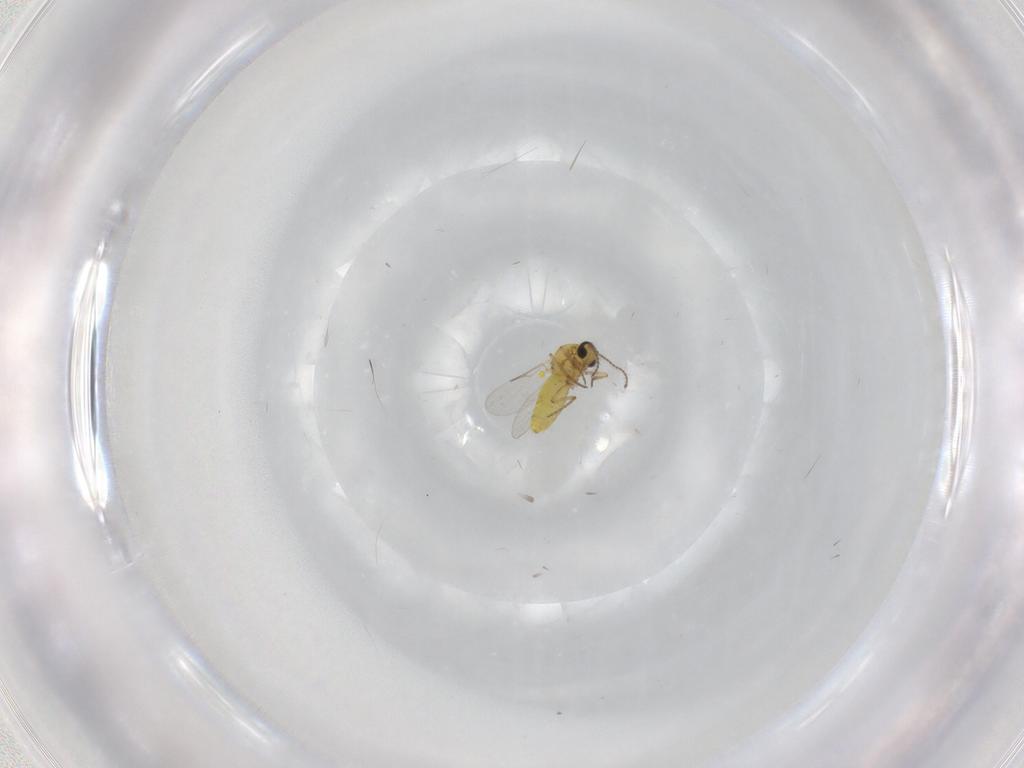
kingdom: Animalia
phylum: Arthropoda
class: Insecta
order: Diptera
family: Ceratopogonidae
